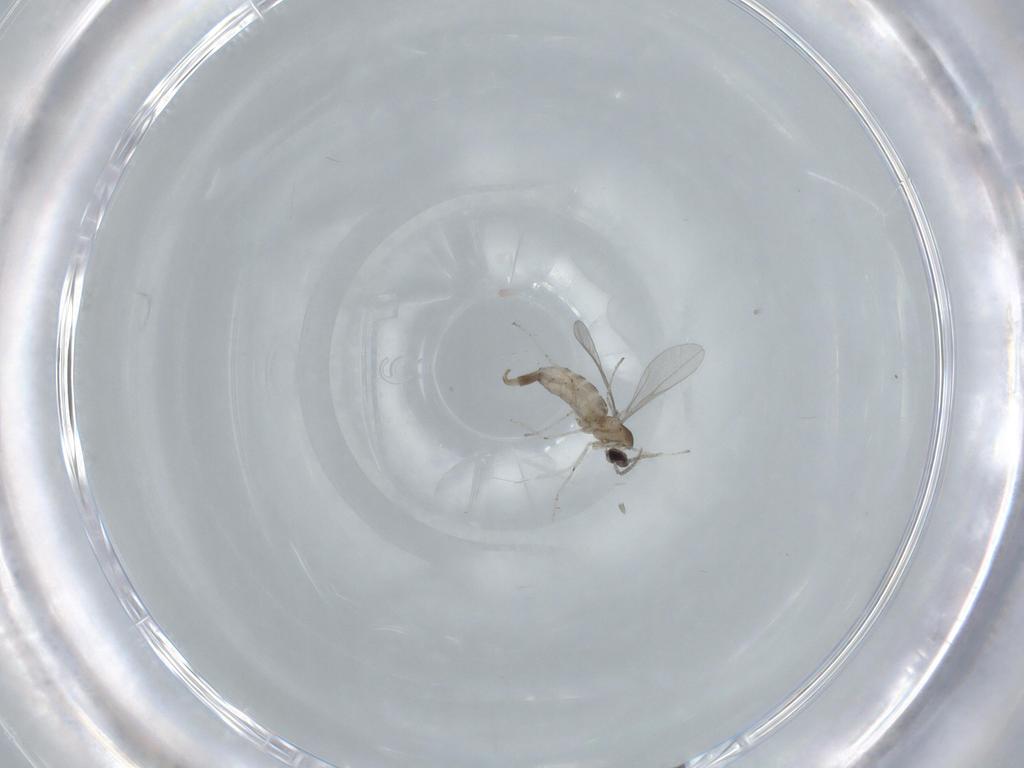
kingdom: Animalia
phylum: Arthropoda
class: Insecta
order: Diptera
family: Cecidomyiidae
